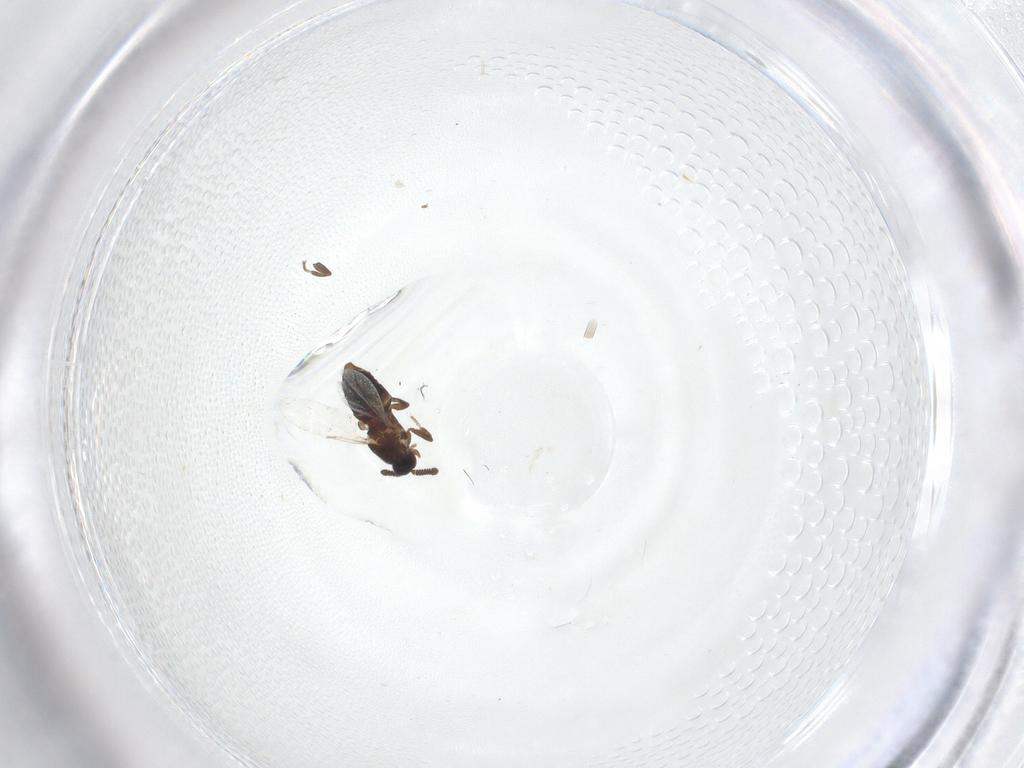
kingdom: Animalia
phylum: Arthropoda
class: Insecta
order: Diptera
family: Scatopsidae
